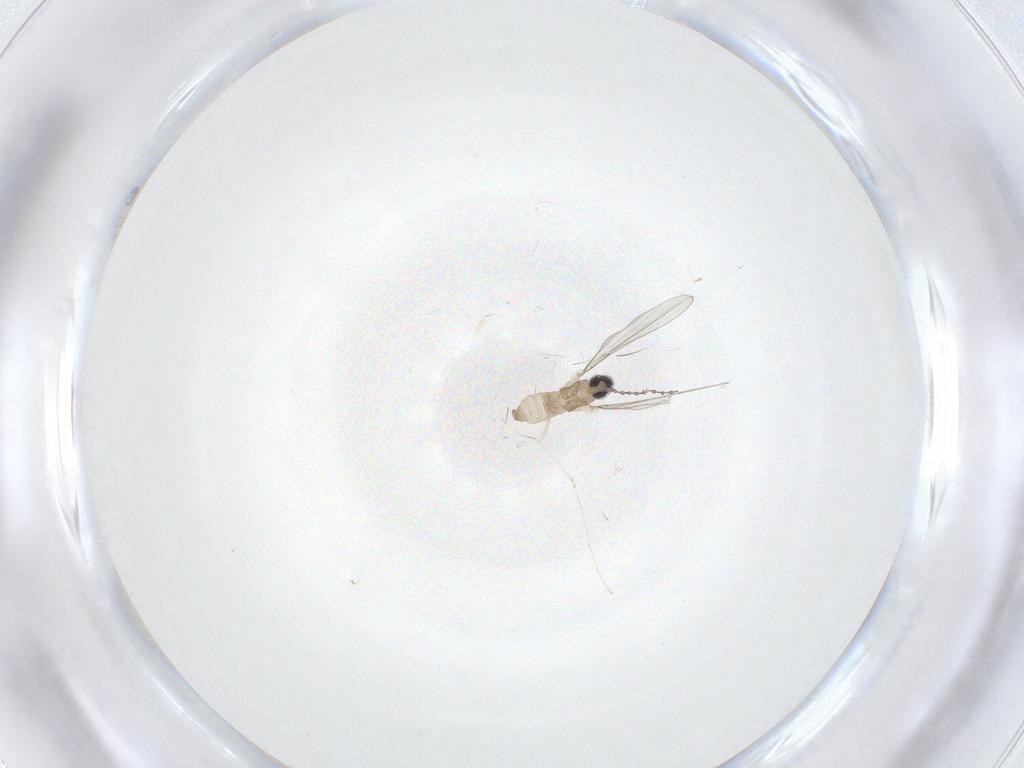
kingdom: Animalia
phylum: Arthropoda
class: Insecta
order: Diptera
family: Cecidomyiidae
